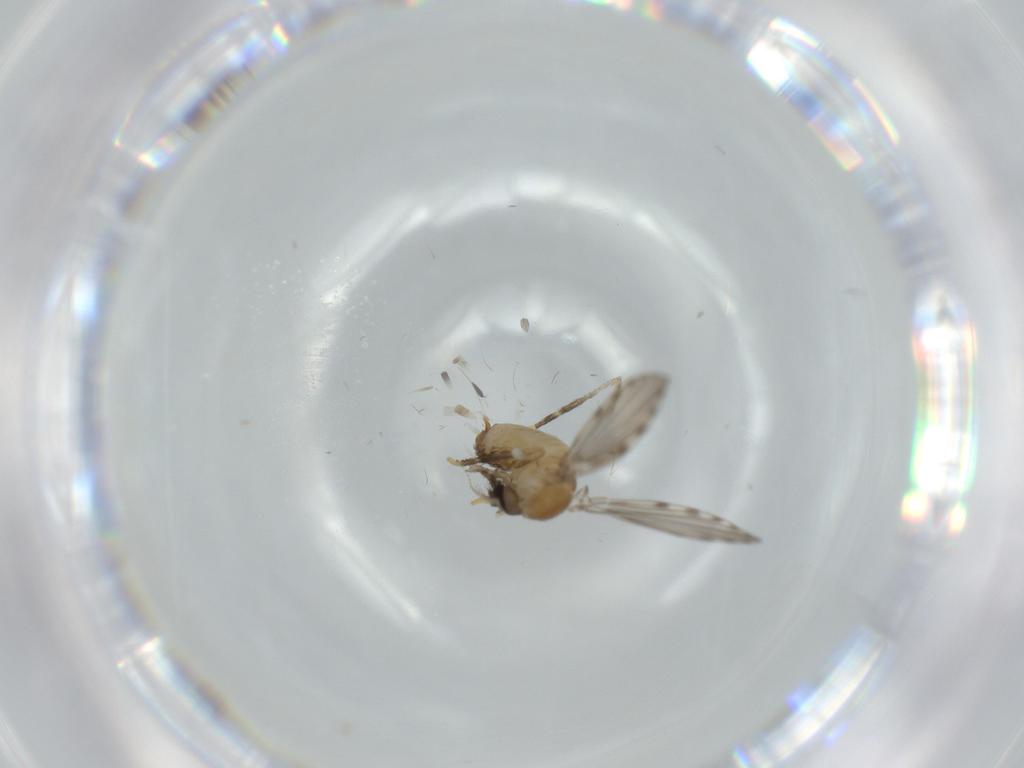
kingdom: Animalia
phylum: Arthropoda
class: Insecta
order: Diptera
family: Psychodidae
